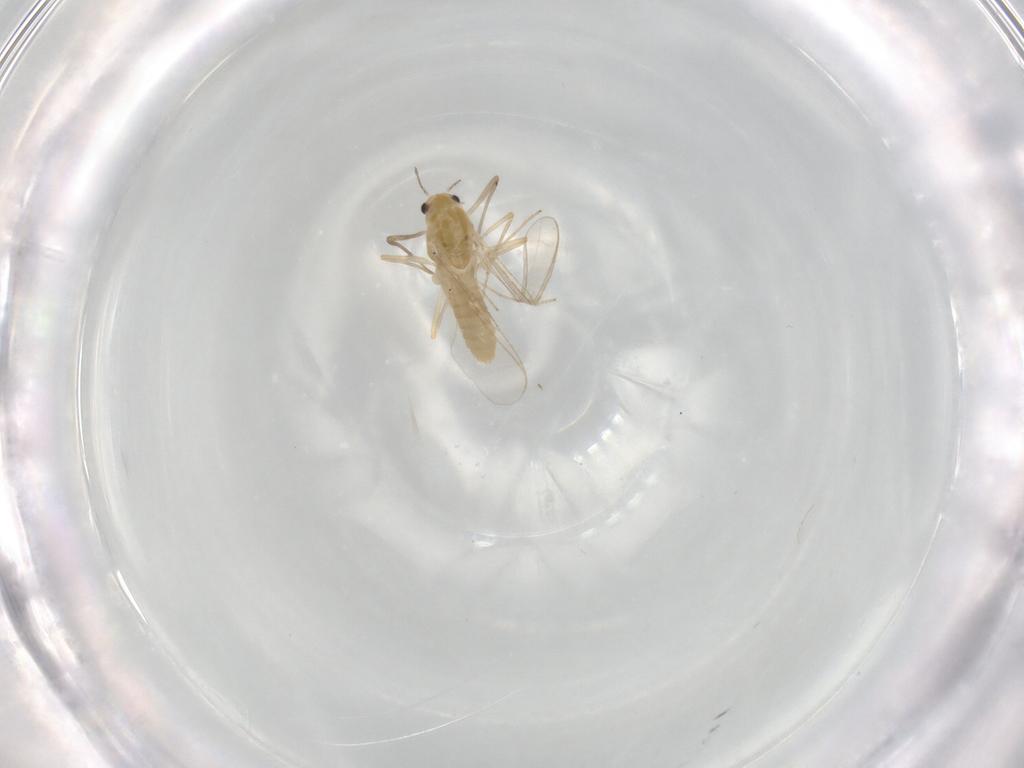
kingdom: Animalia
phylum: Arthropoda
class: Insecta
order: Diptera
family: Chironomidae
